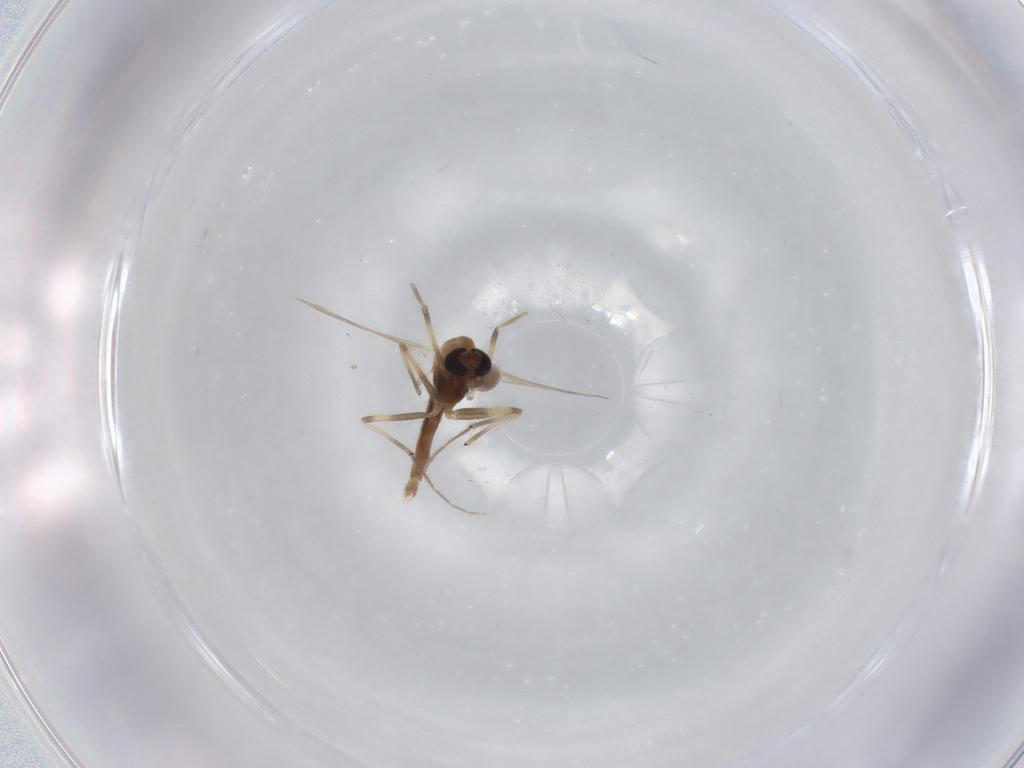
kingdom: Animalia
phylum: Arthropoda
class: Insecta
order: Diptera
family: Chironomidae
